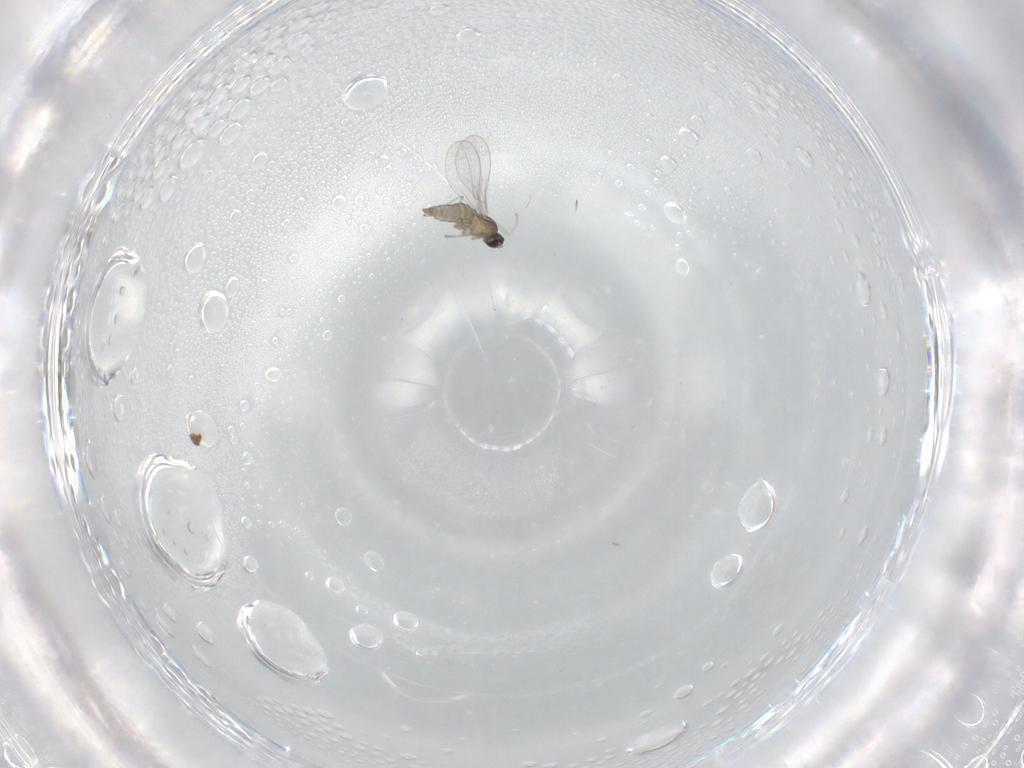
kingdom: Animalia
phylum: Arthropoda
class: Insecta
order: Diptera
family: Cecidomyiidae
